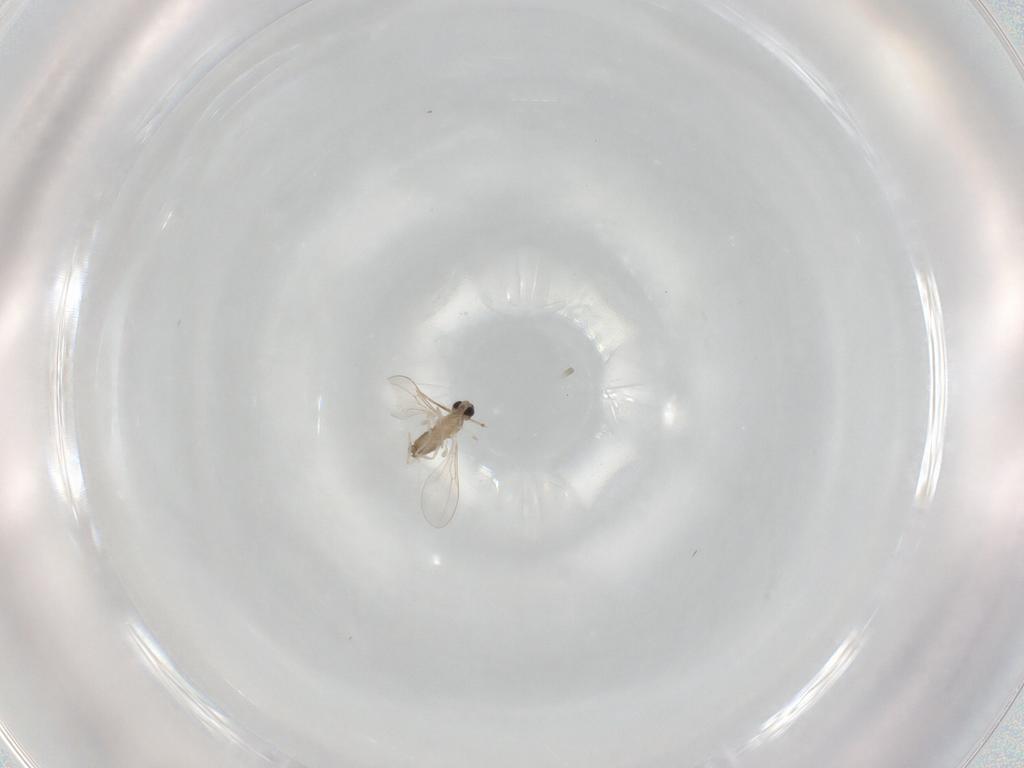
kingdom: Animalia
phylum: Arthropoda
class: Insecta
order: Diptera
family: Cecidomyiidae
